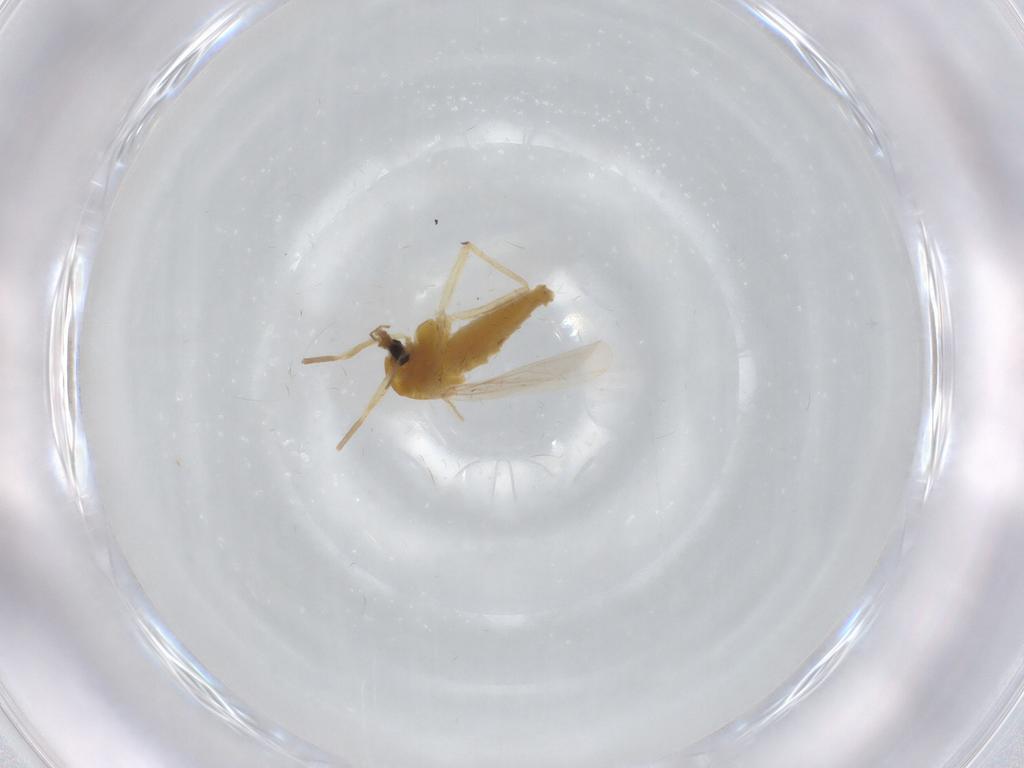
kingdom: Animalia
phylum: Arthropoda
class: Insecta
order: Diptera
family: Chironomidae
